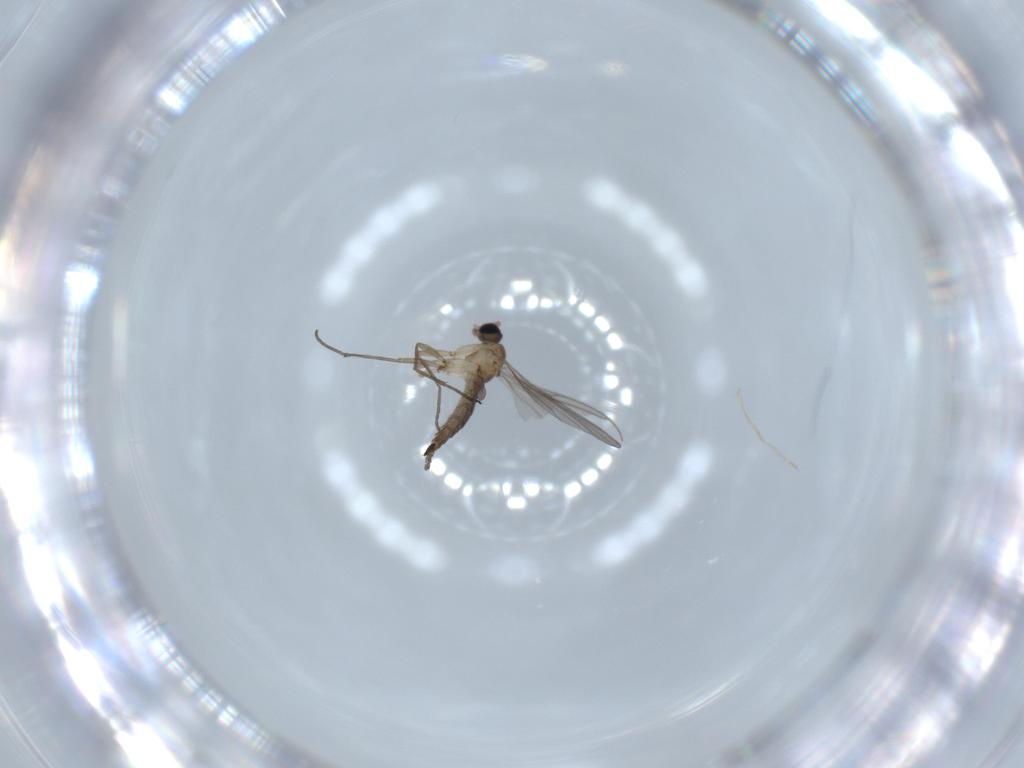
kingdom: Animalia
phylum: Arthropoda
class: Insecta
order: Diptera
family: Sciaridae
